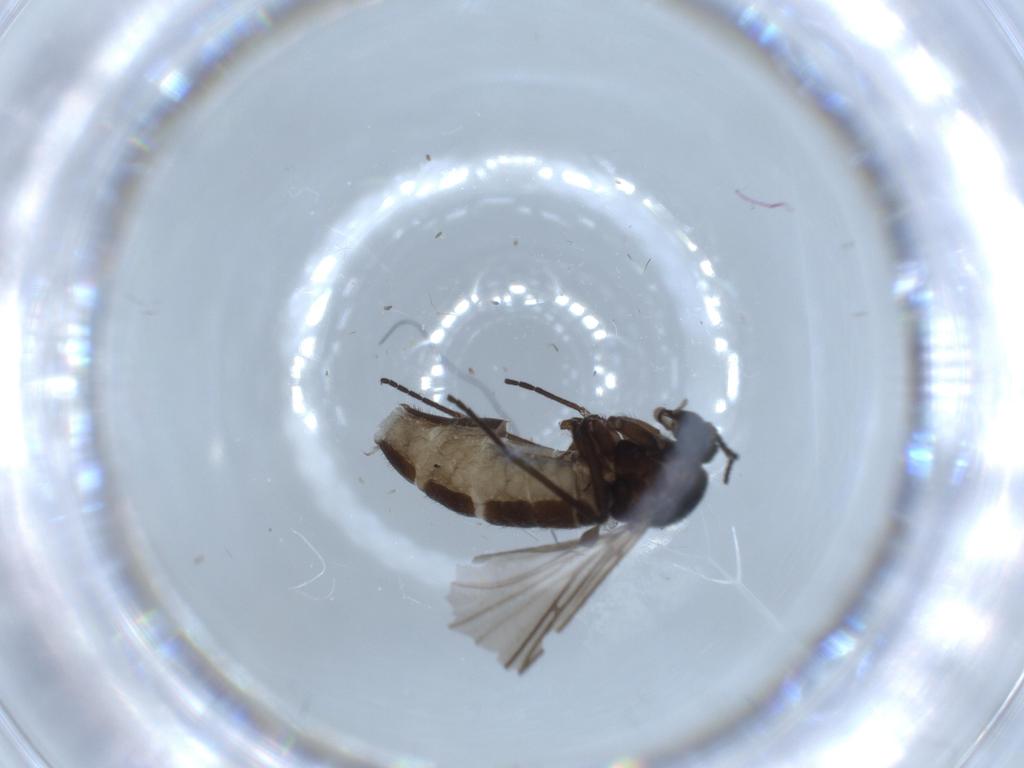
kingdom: Animalia
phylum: Arthropoda
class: Insecta
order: Diptera
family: Sciaridae
